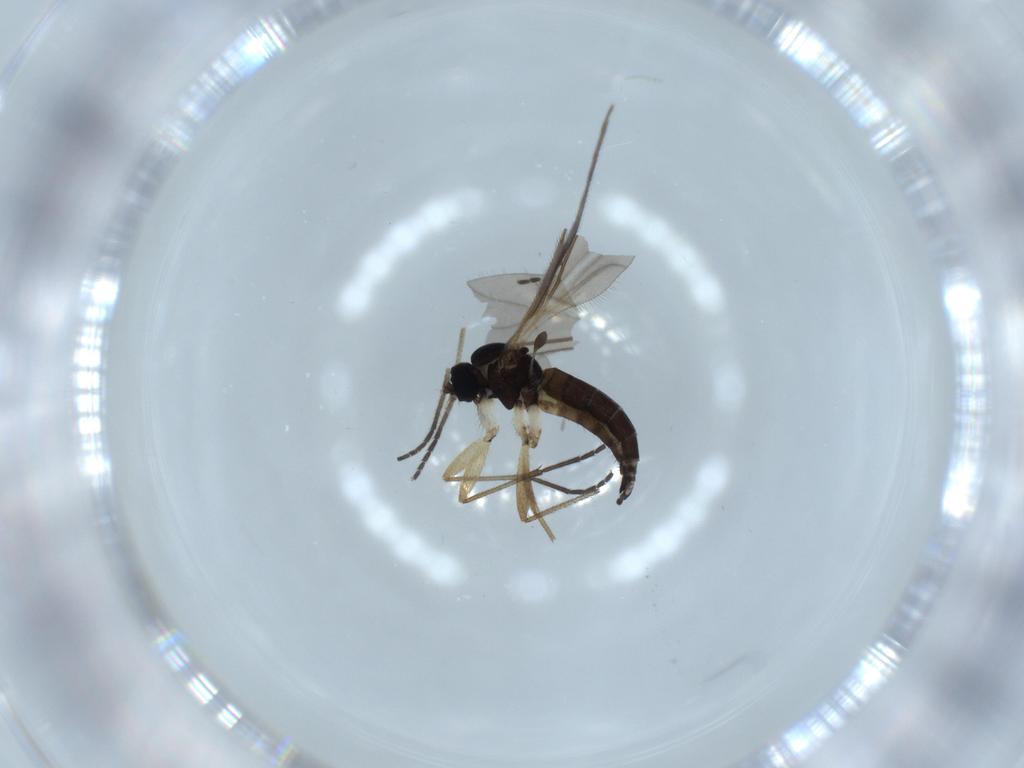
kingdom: Animalia
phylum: Arthropoda
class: Insecta
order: Diptera
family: Sciaridae
